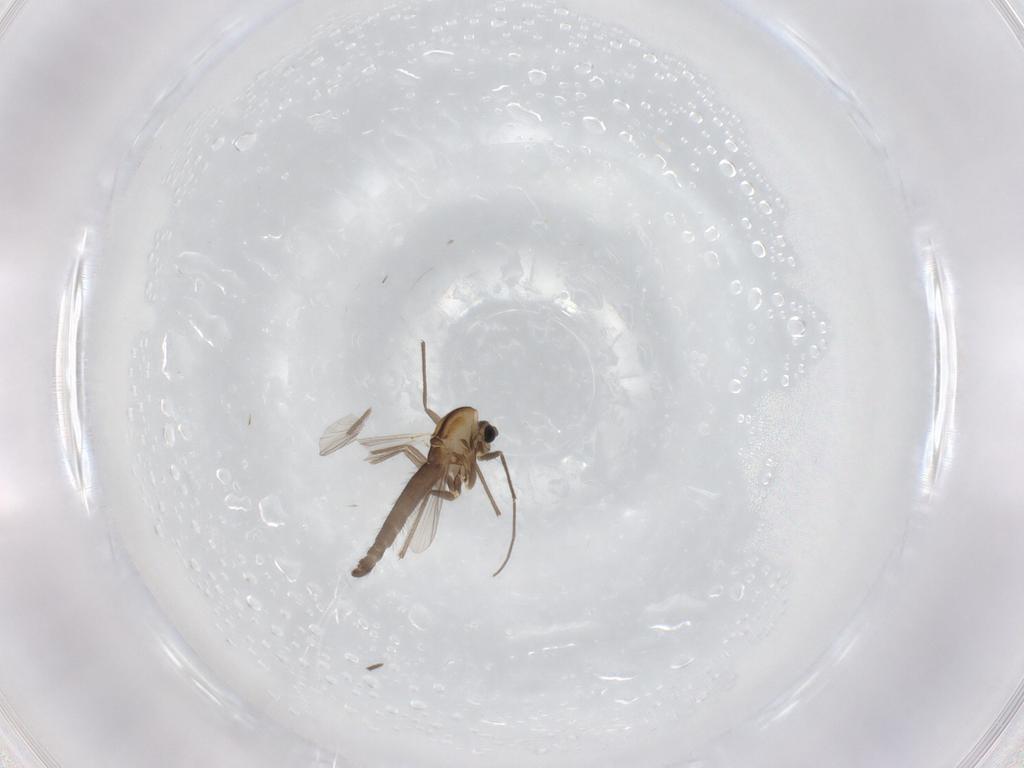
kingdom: Animalia
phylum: Arthropoda
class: Insecta
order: Diptera
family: Chironomidae
